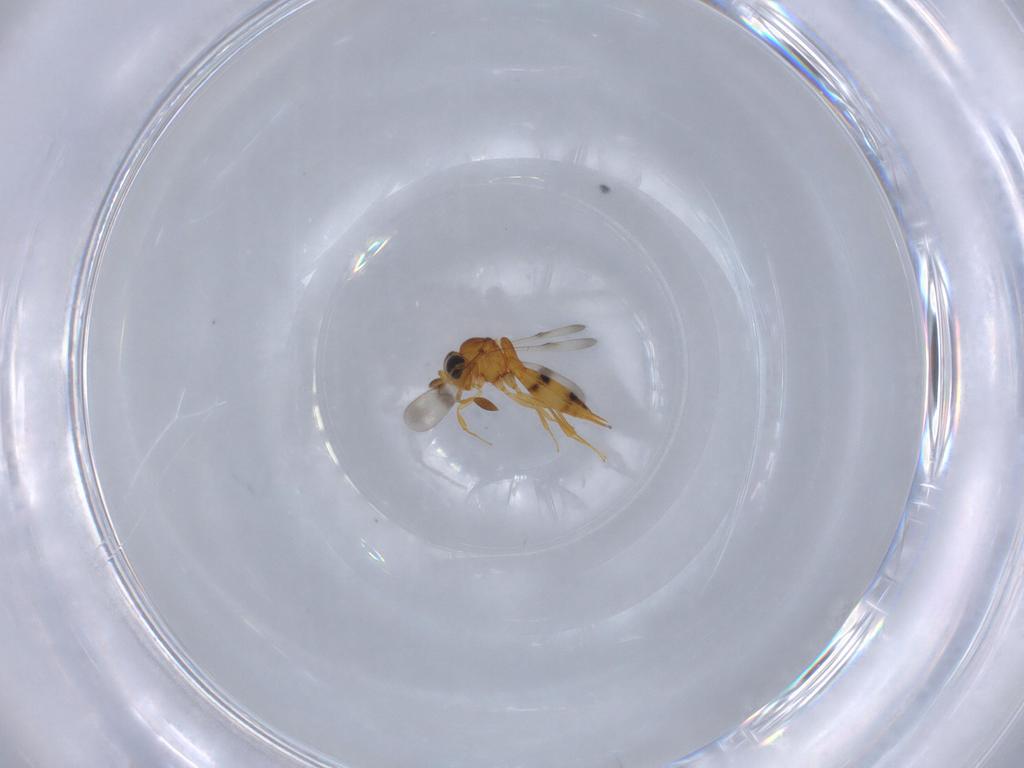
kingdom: Animalia
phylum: Arthropoda
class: Insecta
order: Hymenoptera
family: Scelionidae
